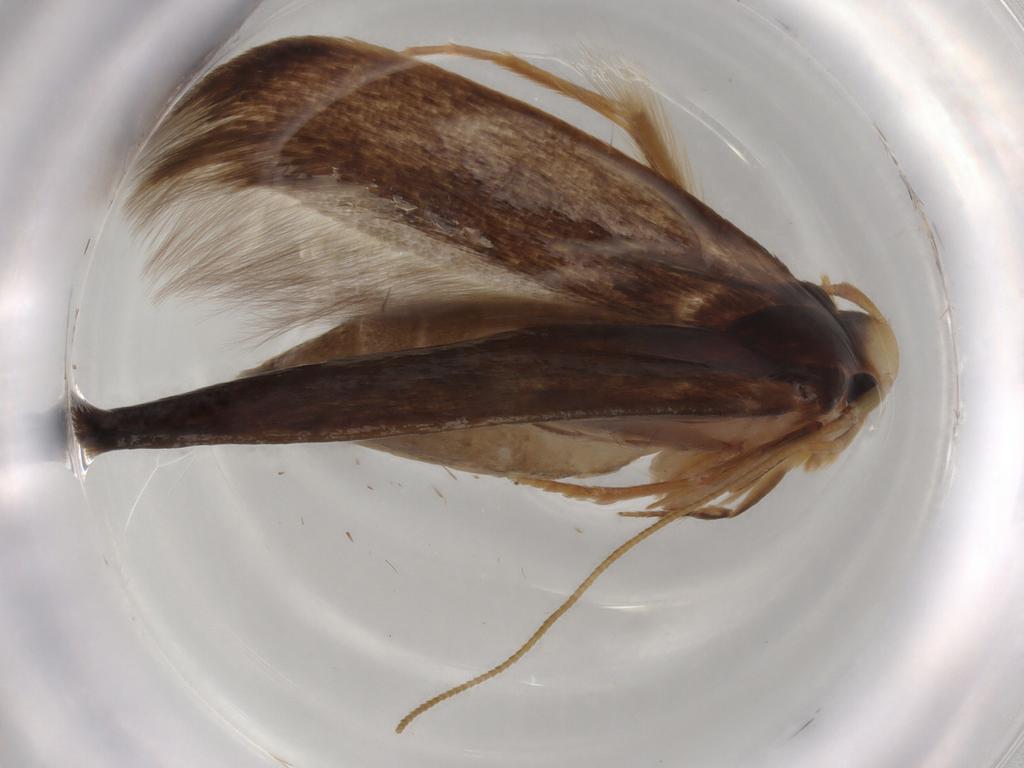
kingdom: Animalia
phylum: Arthropoda
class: Insecta
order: Lepidoptera
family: Tineidae
